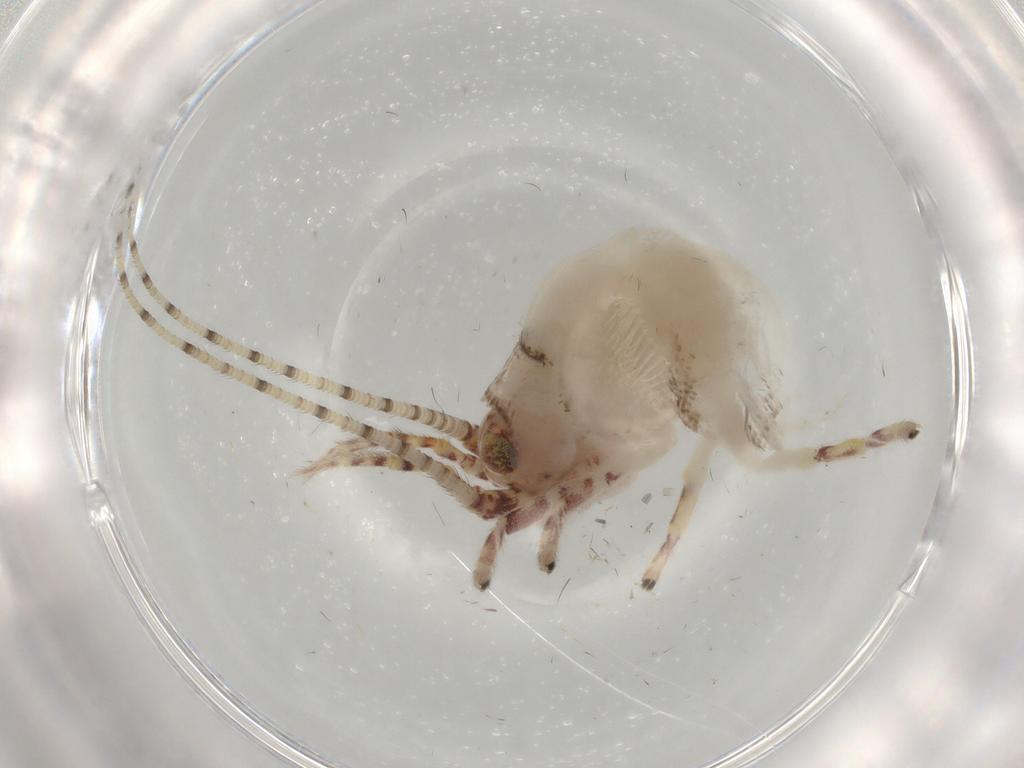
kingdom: Animalia
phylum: Arthropoda
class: Insecta
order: Archaeognatha
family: Machilidae
